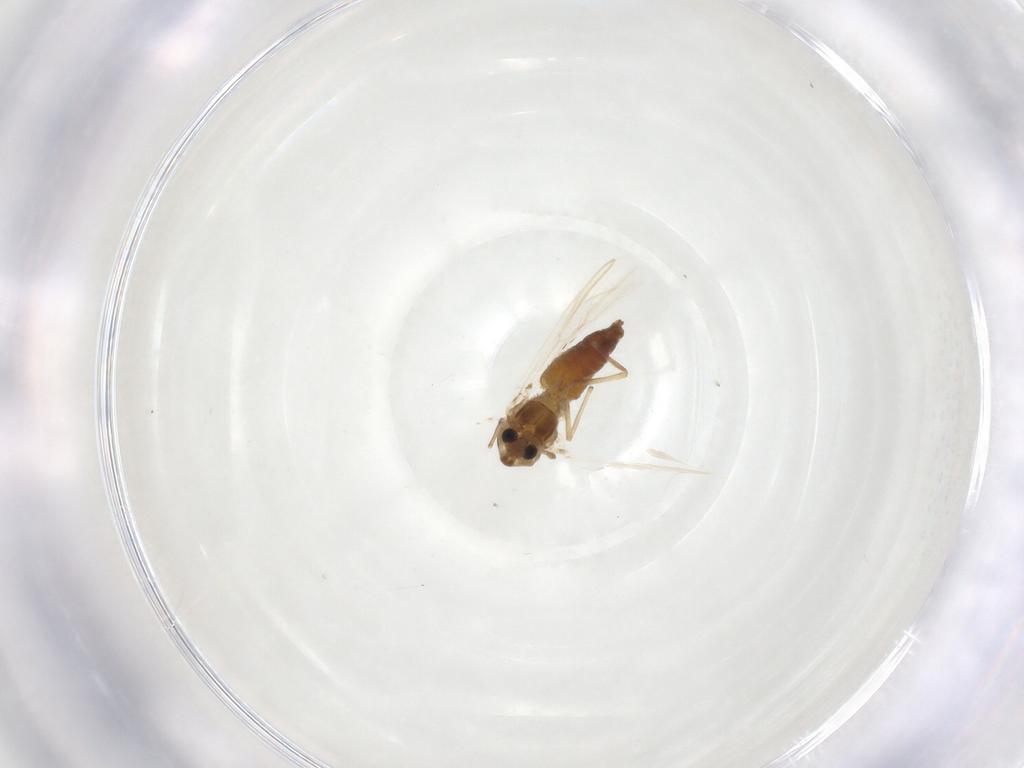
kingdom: Animalia
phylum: Arthropoda
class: Insecta
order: Diptera
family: Chironomidae
